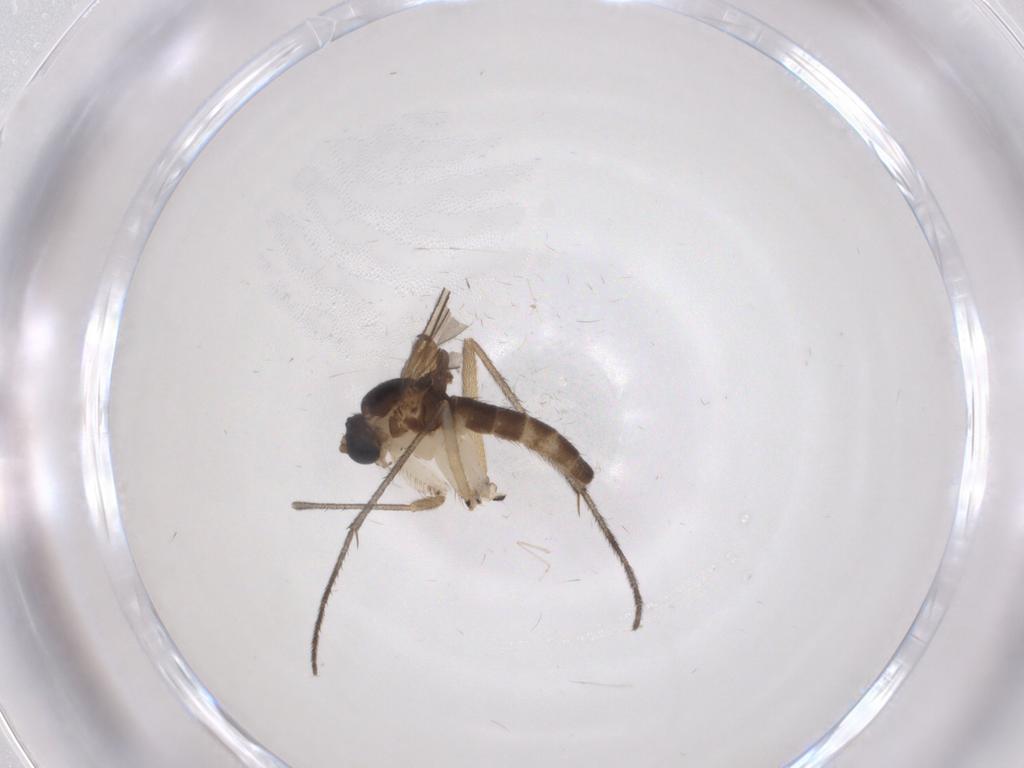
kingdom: Animalia
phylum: Arthropoda
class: Insecta
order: Diptera
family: Sciaridae
